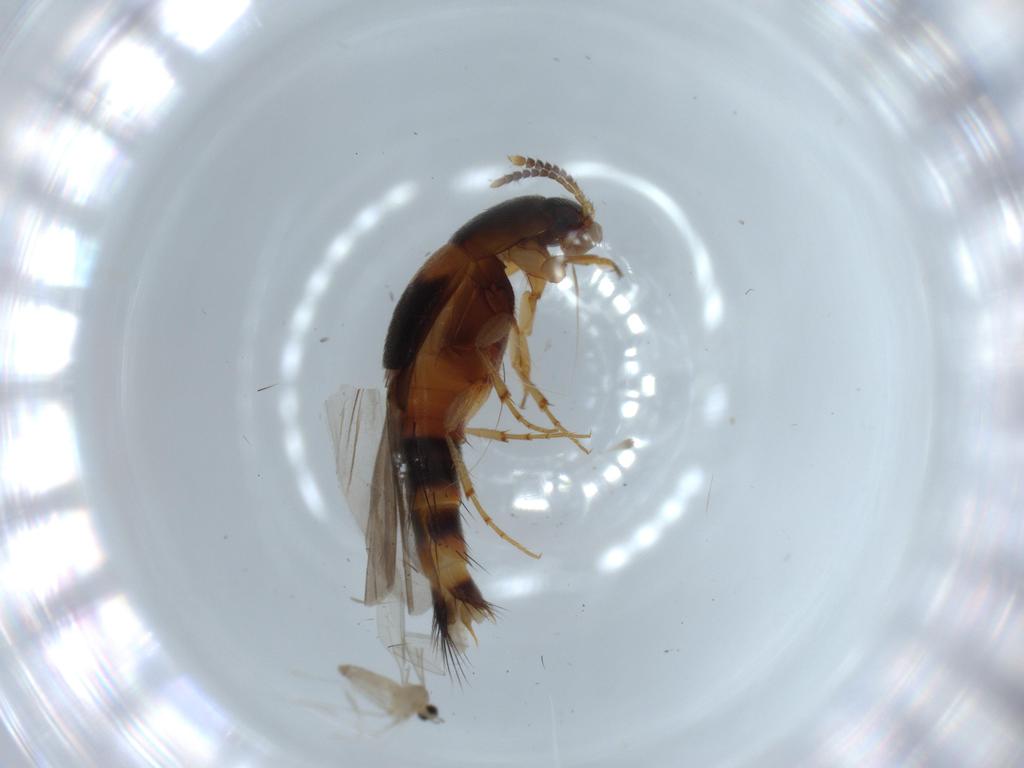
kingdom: Animalia
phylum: Arthropoda
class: Insecta
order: Coleoptera
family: Staphylinidae
